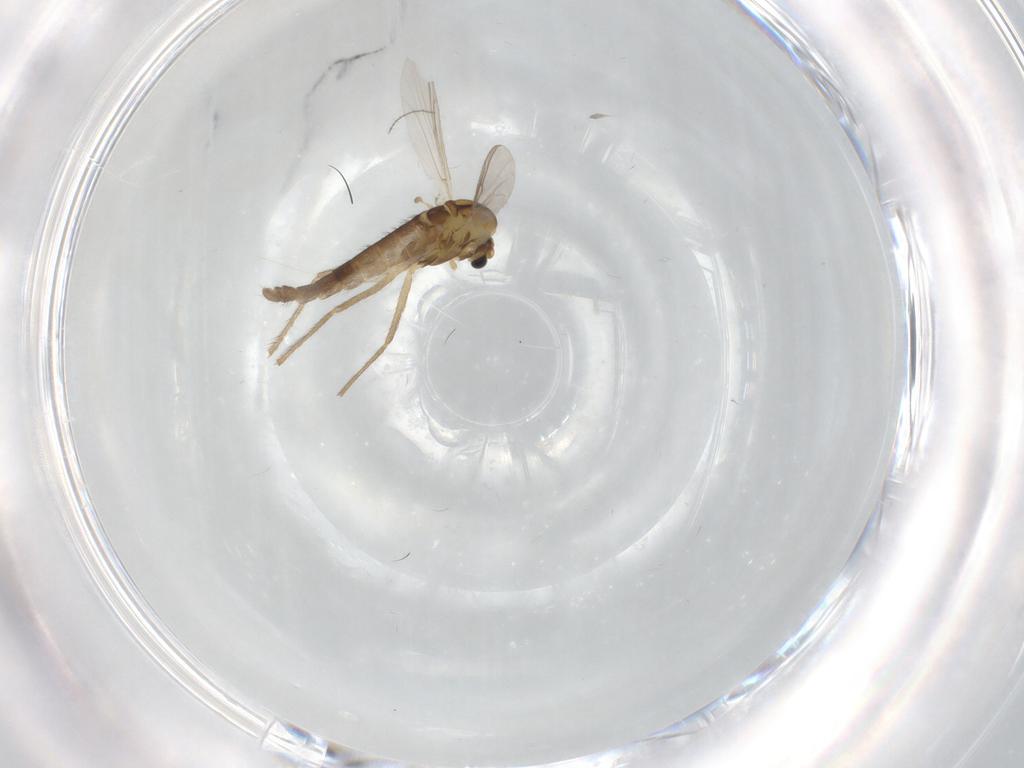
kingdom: Animalia
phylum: Arthropoda
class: Insecta
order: Diptera
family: Chironomidae
